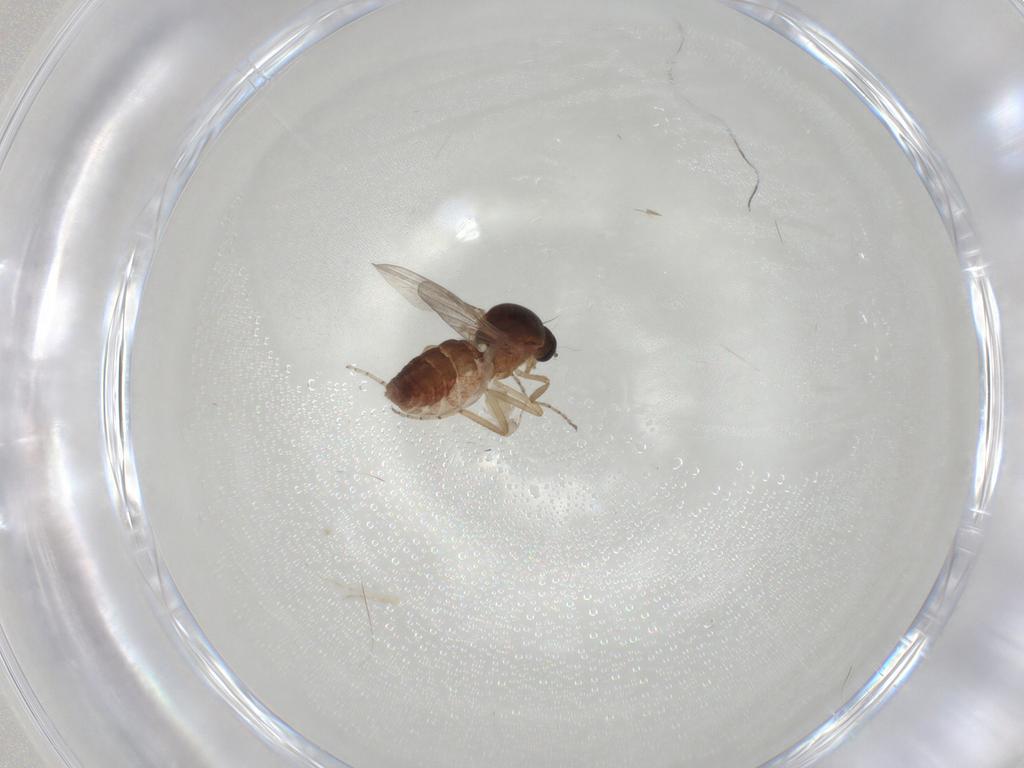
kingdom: Animalia
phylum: Arthropoda
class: Insecta
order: Diptera
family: Ceratopogonidae
